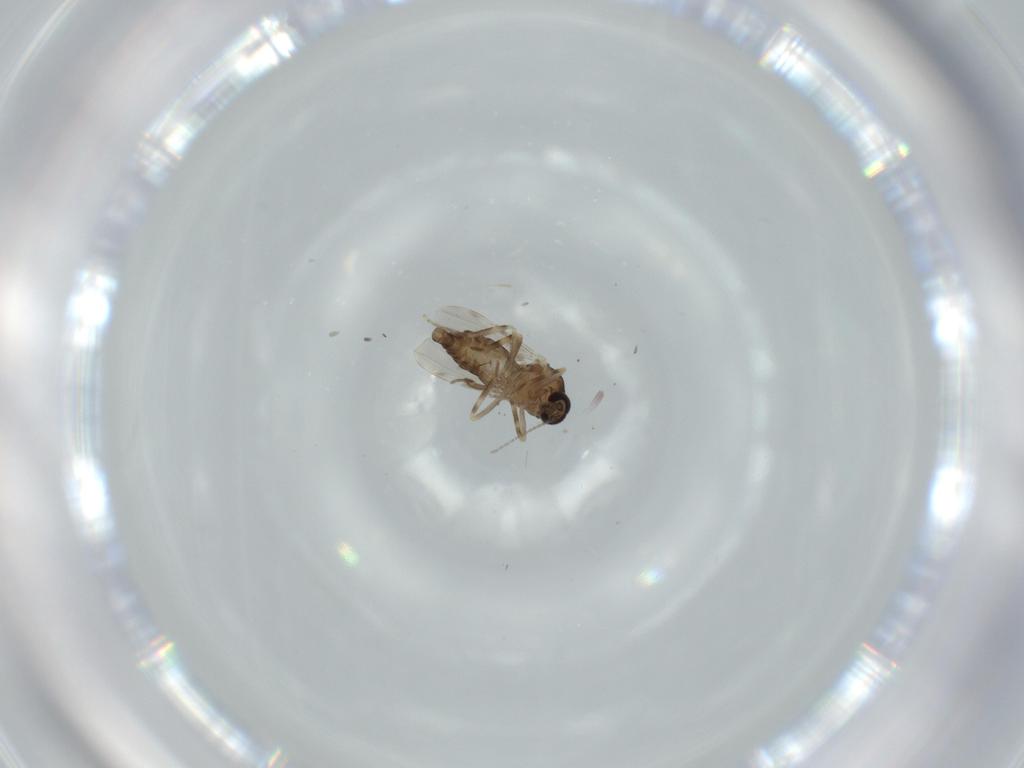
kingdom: Animalia
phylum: Arthropoda
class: Insecta
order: Diptera
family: Ceratopogonidae
